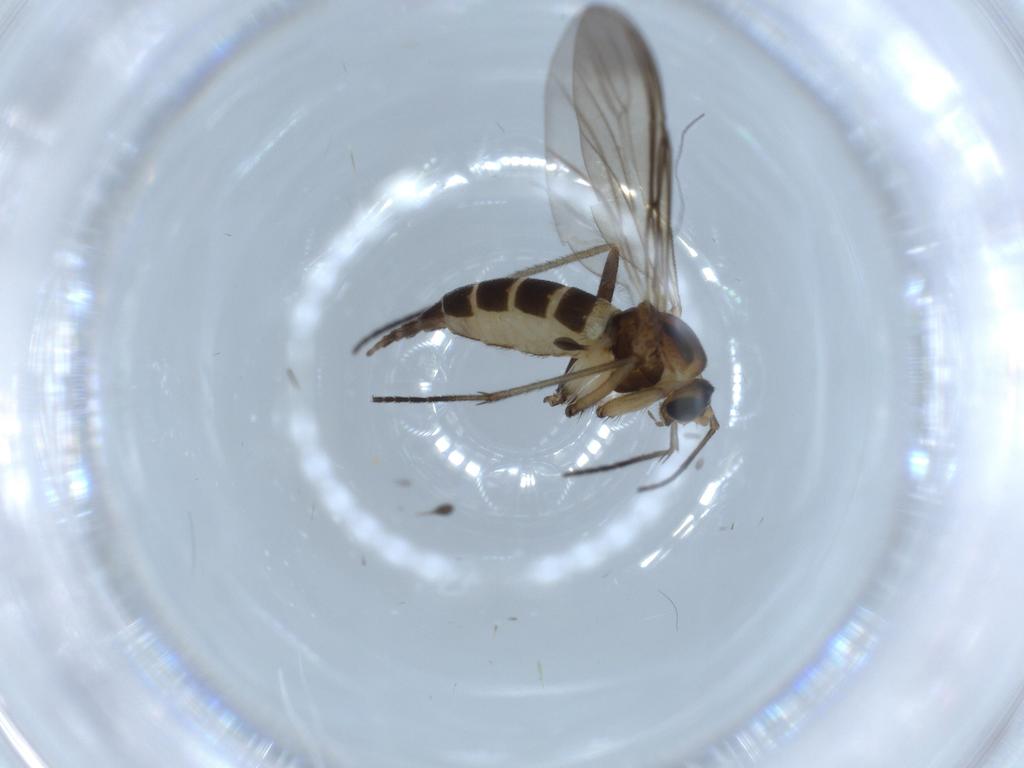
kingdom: Animalia
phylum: Arthropoda
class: Insecta
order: Diptera
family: Sciaridae
